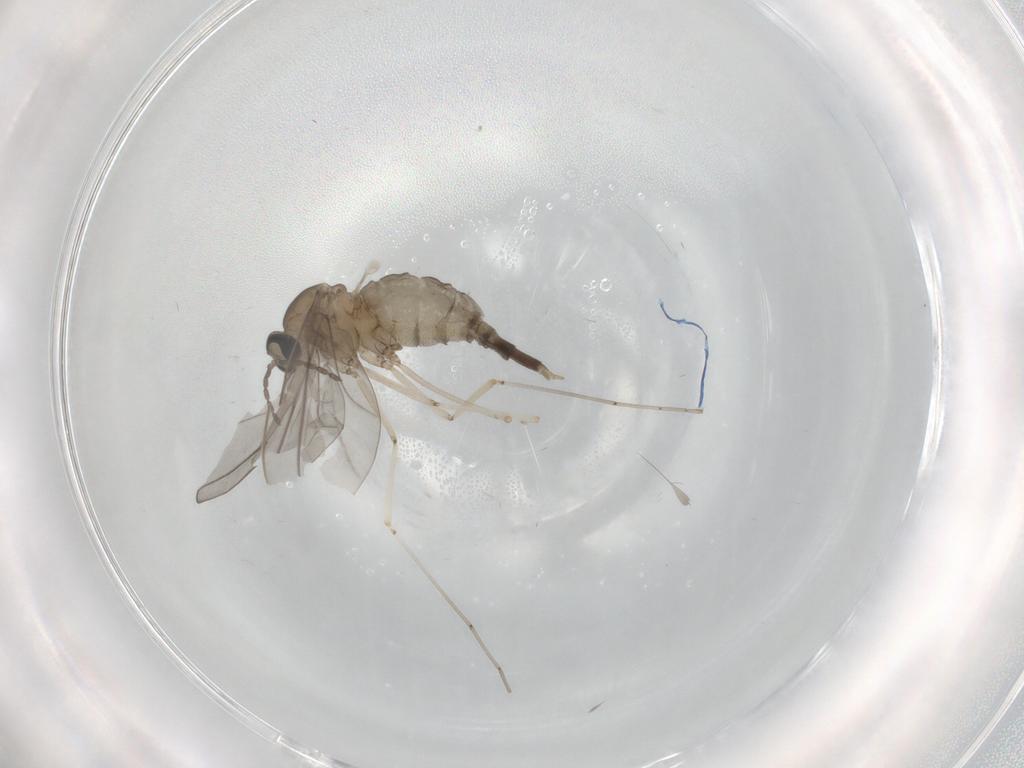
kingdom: Animalia
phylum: Arthropoda
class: Insecta
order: Diptera
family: Cecidomyiidae
